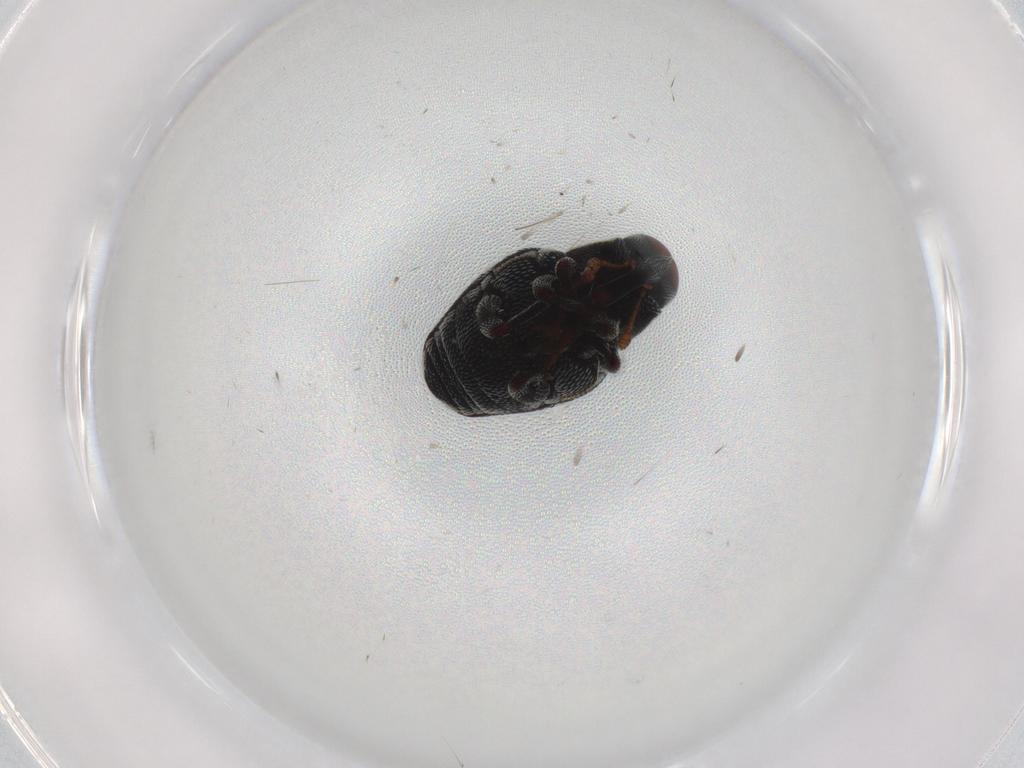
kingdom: Animalia
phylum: Arthropoda
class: Insecta
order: Coleoptera
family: Curculionidae
